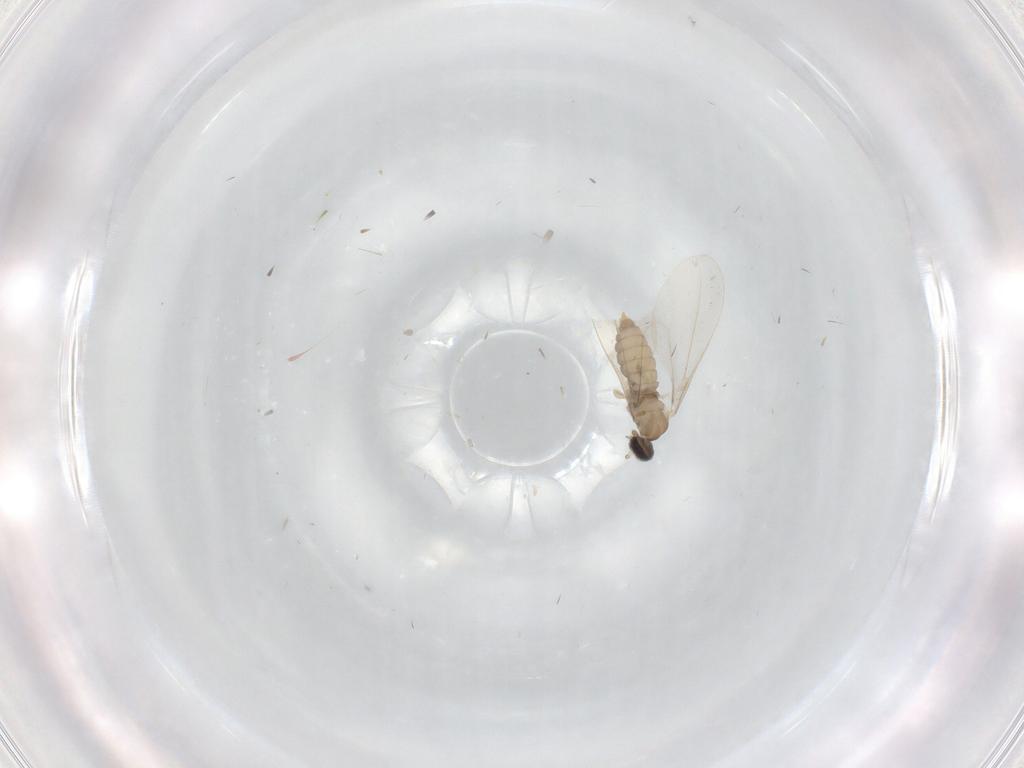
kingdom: Animalia
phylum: Arthropoda
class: Insecta
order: Diptera
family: Cecidomyiidae
